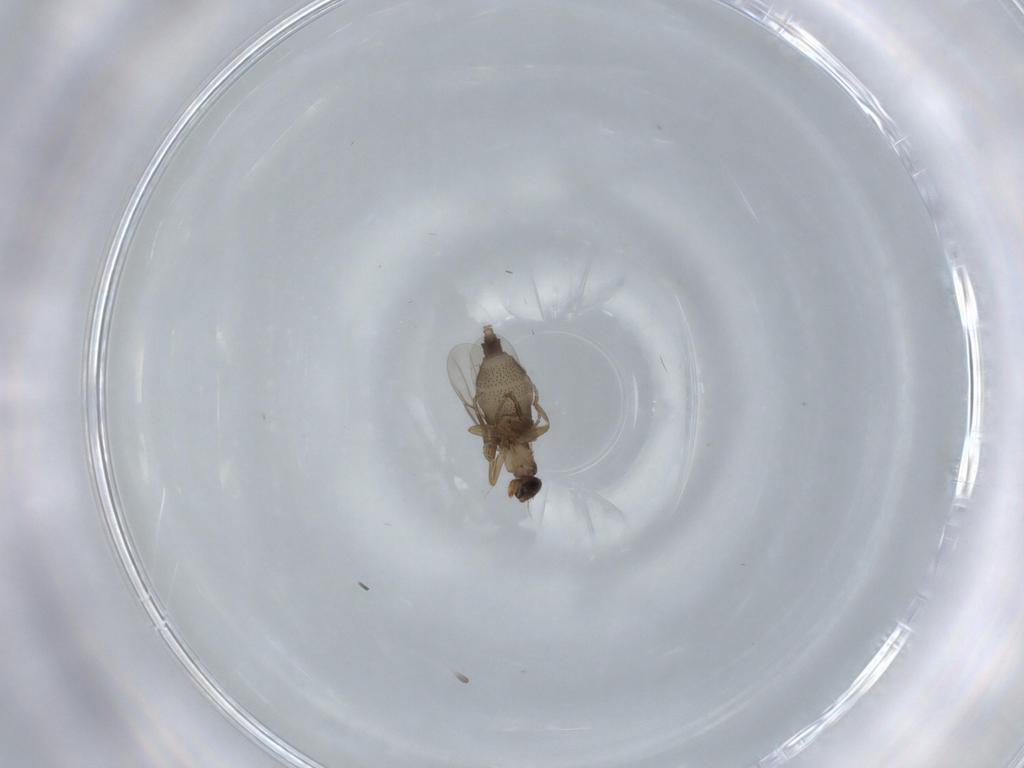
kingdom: Animalia
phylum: Arthropoda
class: Insecta
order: Diptera
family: Phoridae
